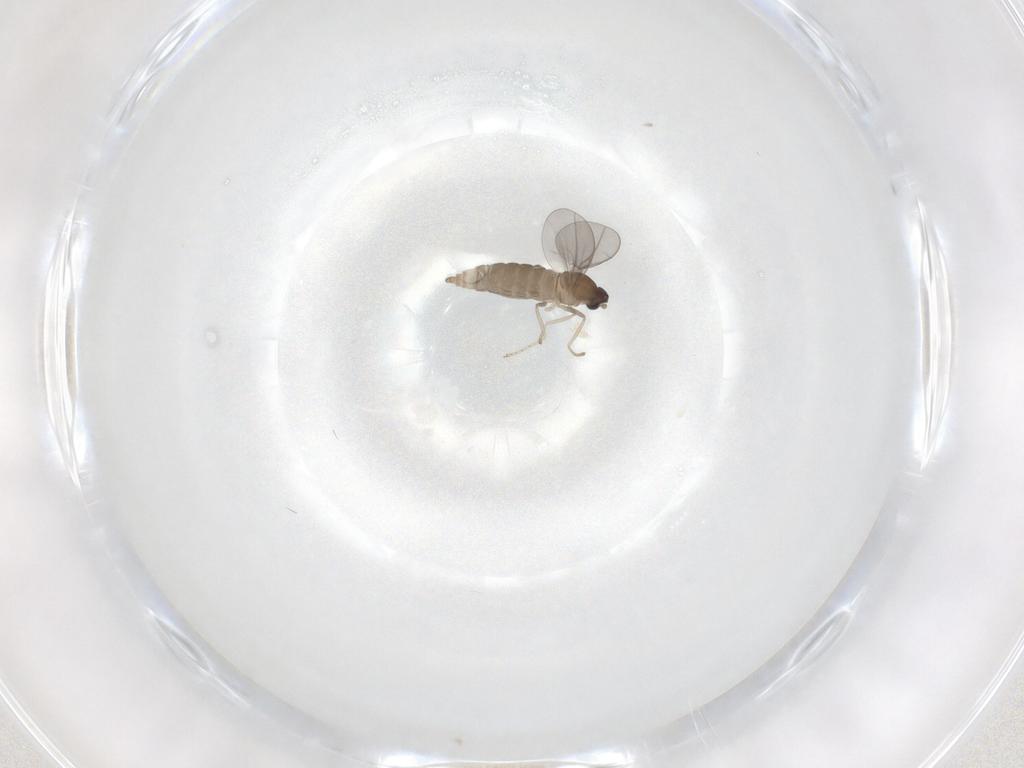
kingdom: Animalia
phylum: Arthropoda
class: Insecta
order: Diptera
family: Cecidomyiidae
